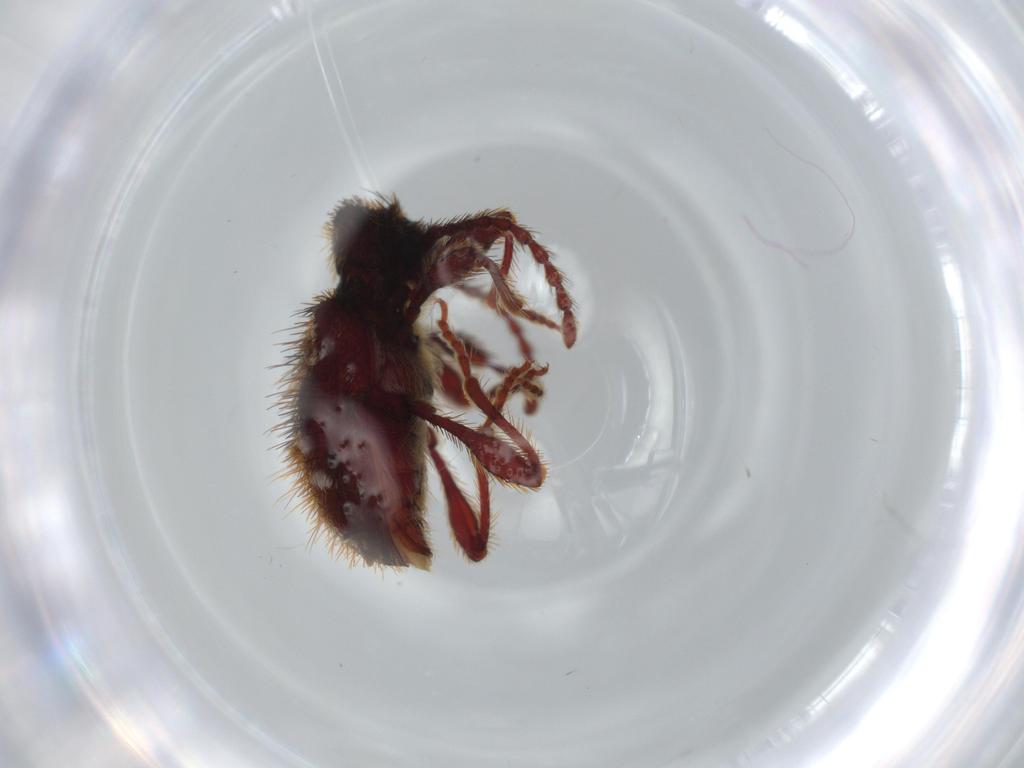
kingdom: Animalia
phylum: Arthropoda
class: Insecta
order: Coleoptera
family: Ptinidae
